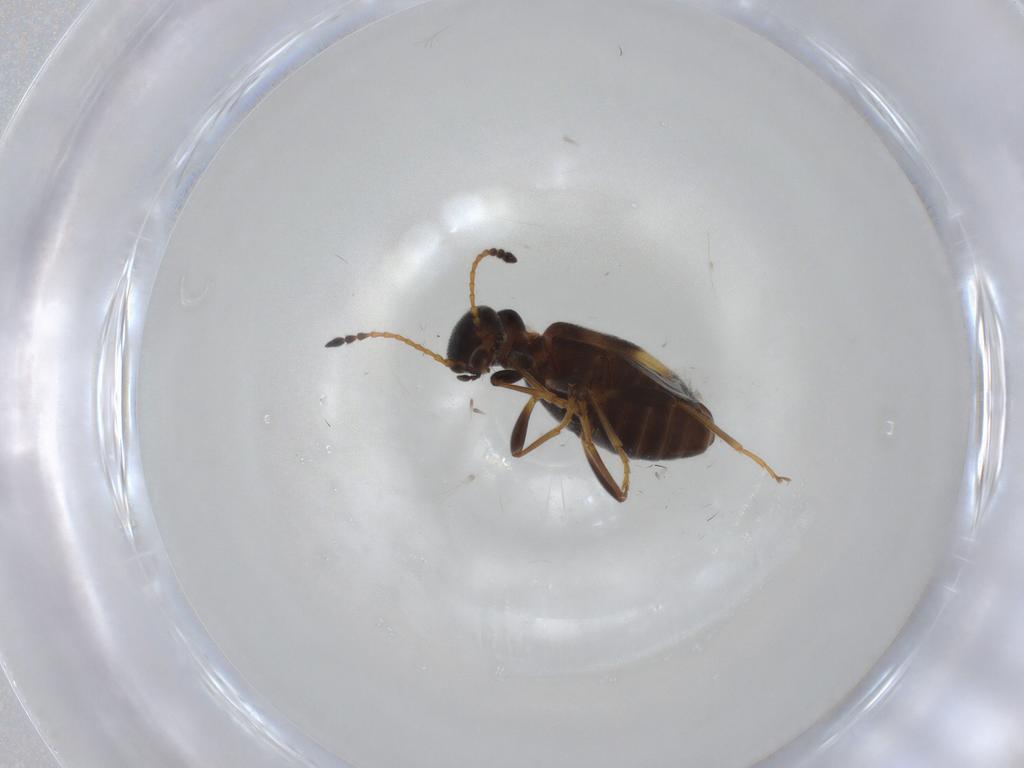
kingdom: Animalia
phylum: Arthropoda
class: Insecta
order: Coleoptera
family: Anthicidae
